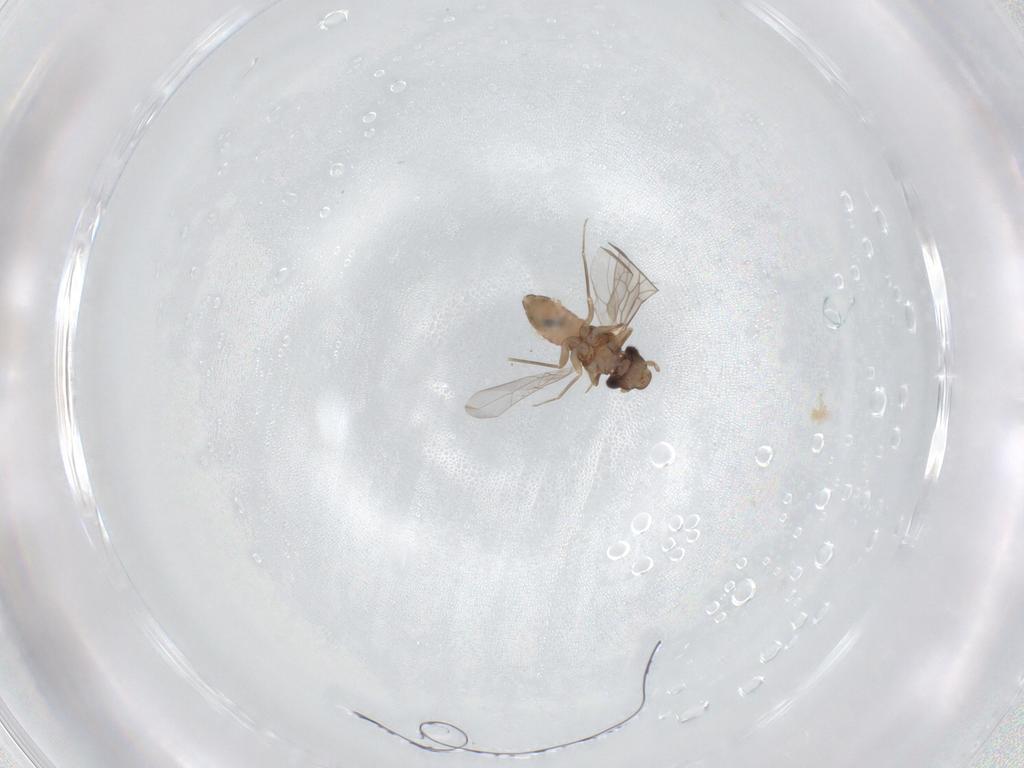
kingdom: Animalia
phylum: Arthropoda
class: Insecta
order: Psocodea
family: Lepidopsocidae
